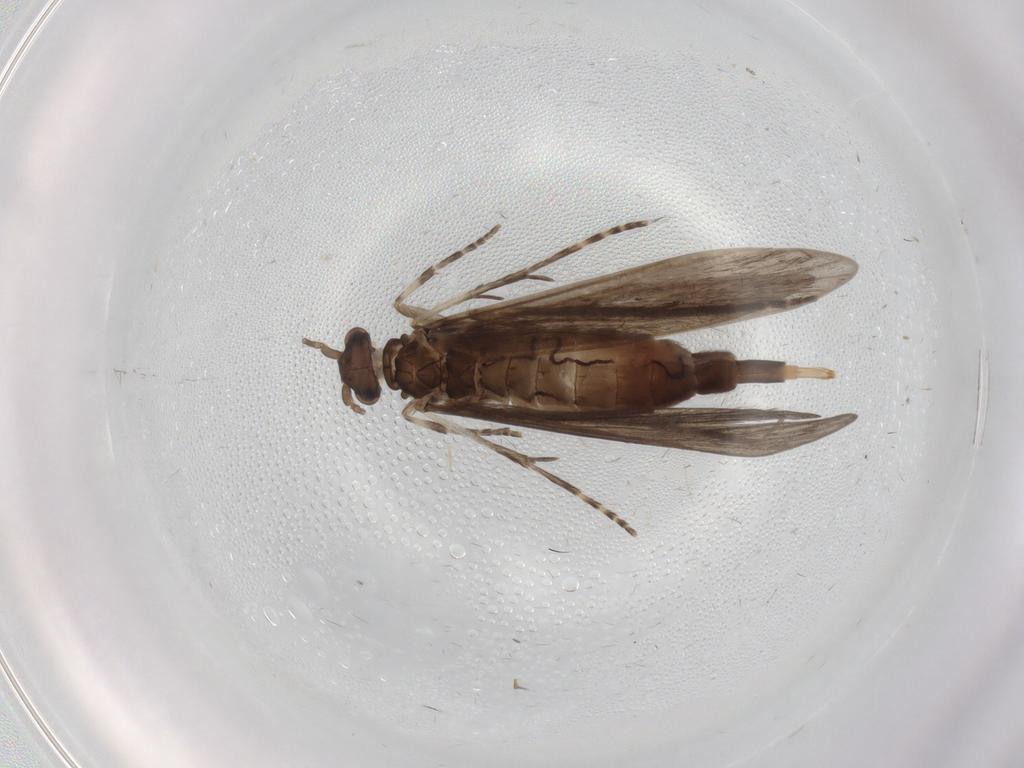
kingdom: Animalia
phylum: Arthropoda
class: Insecta
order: Trichoptera
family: Xiphocentronidae
